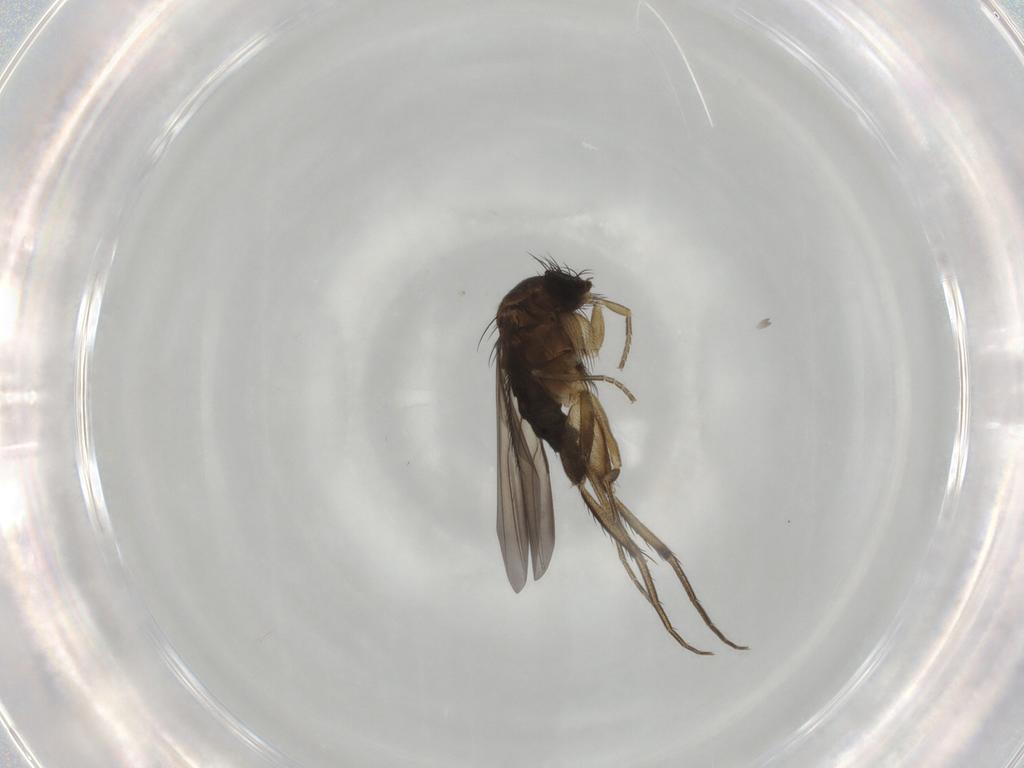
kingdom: Animalia
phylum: Arthropoda
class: Insecta
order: Diptera
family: Phoridae
